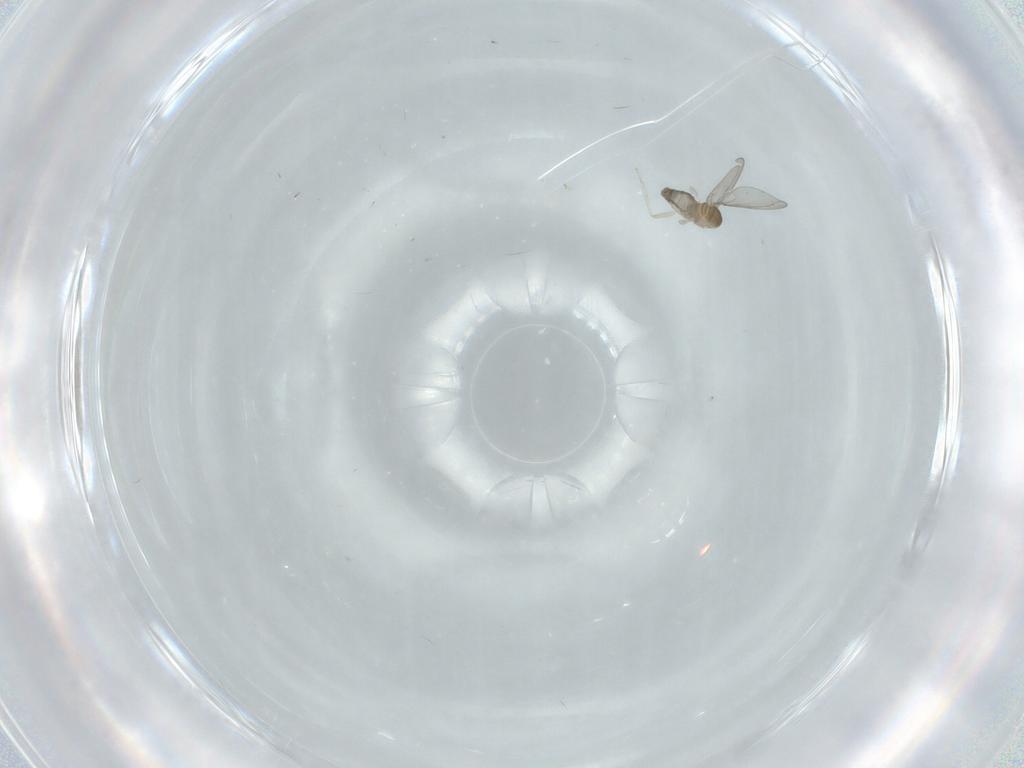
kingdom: Animalia
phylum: Arthropoda
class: Insecta
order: Diptera
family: Cecidomyiidae
